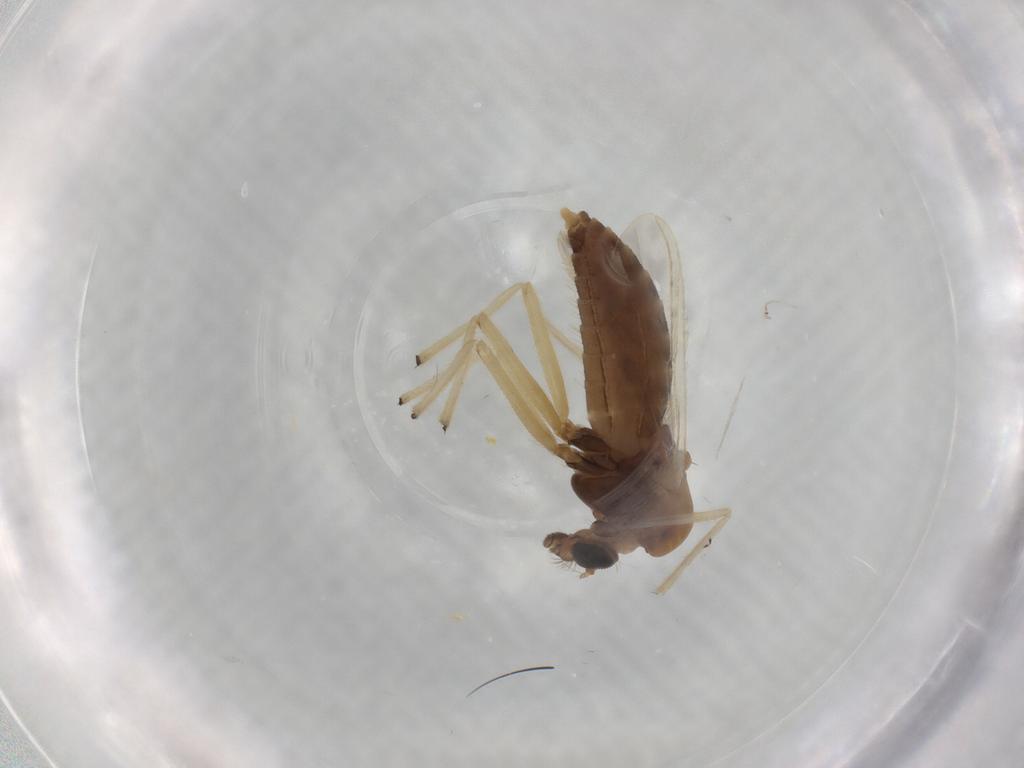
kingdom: Animalia
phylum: Arthropoda
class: Insecta
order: Diptera
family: Chironomidae
